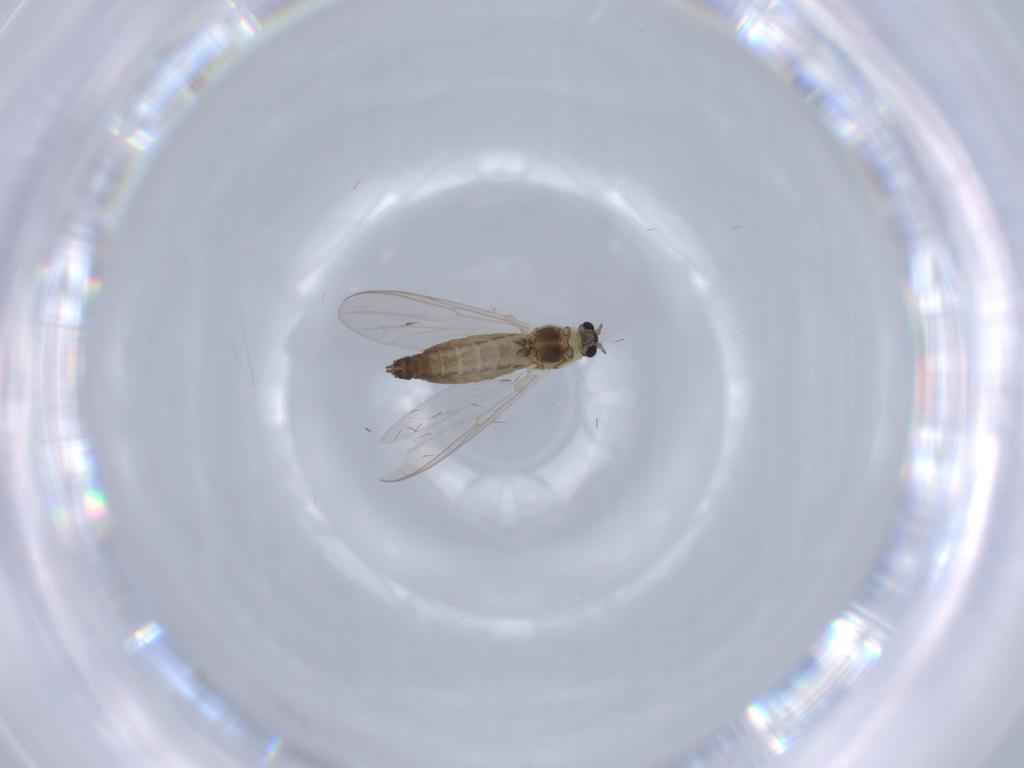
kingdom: Animalia
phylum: Arthropoda
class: Insecta
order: Diptera
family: Chironomidae
